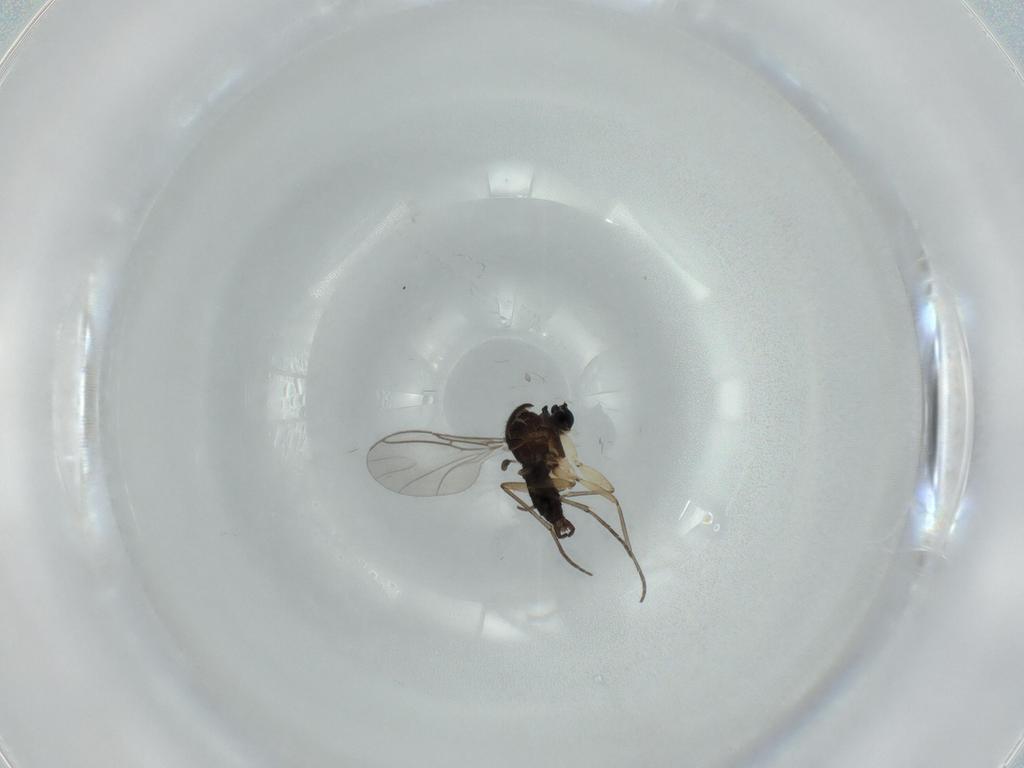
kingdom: Animalia
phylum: Arthropoda
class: Insecta
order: Diptera
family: Sciaridae
